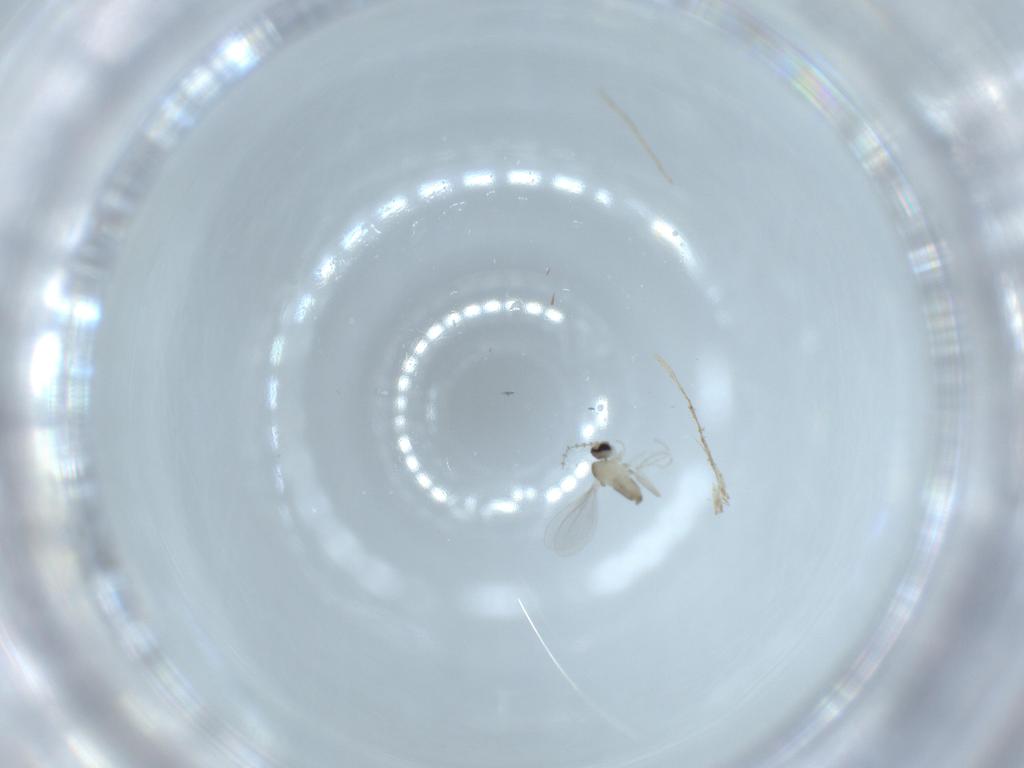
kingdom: Animalia
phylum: Arthropoda
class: Insecta
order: Diptera
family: Cecidomyiidae
